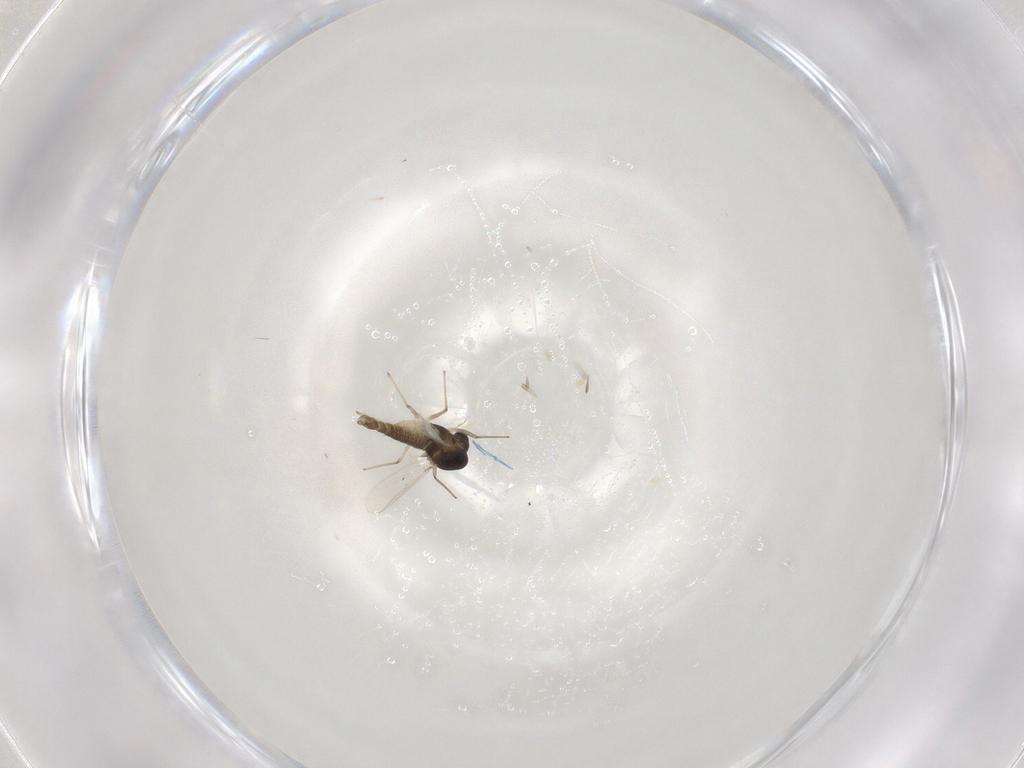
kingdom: Animalia
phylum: Arthropoda
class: Insecta
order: Diptera
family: Chironomidae
